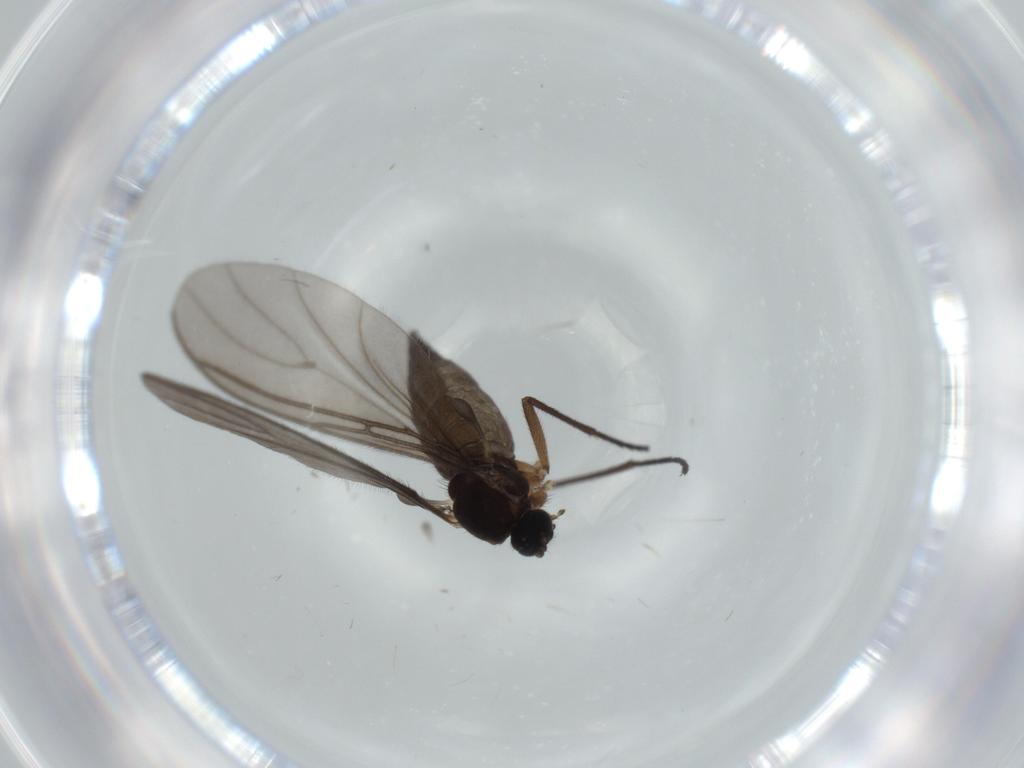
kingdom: Animalia
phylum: Arthropoda
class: Insecta
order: Diptera
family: Sciaridae
